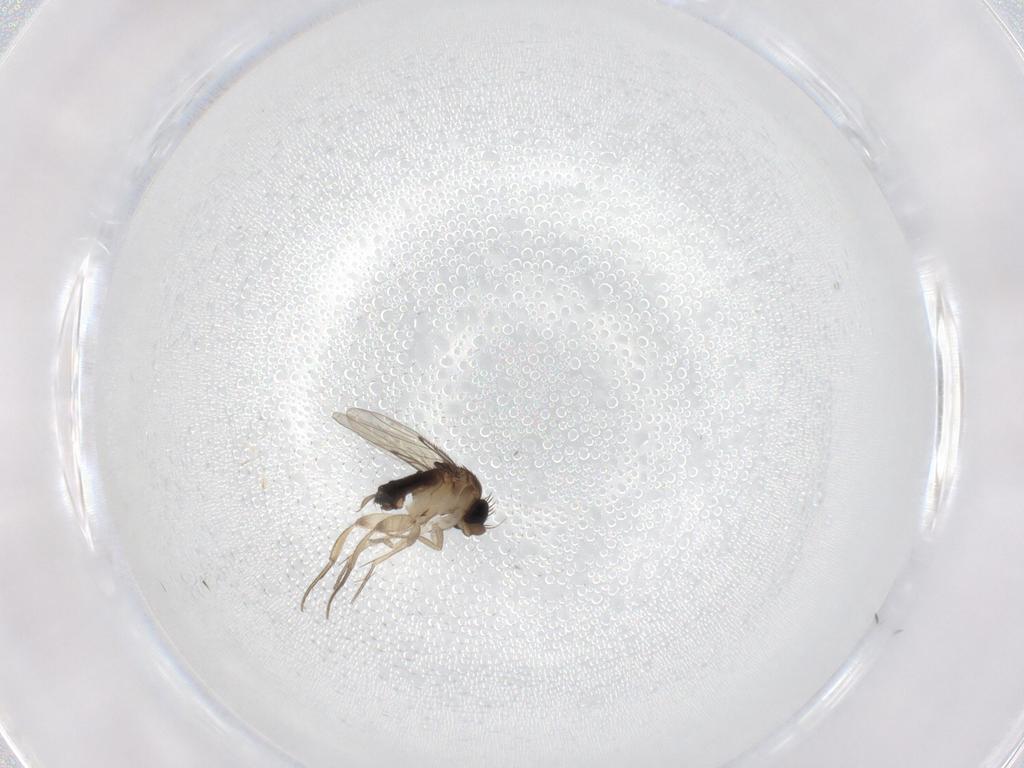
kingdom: Animalia
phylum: Arthropoda
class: Insecta
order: Diptera
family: Phoridae
